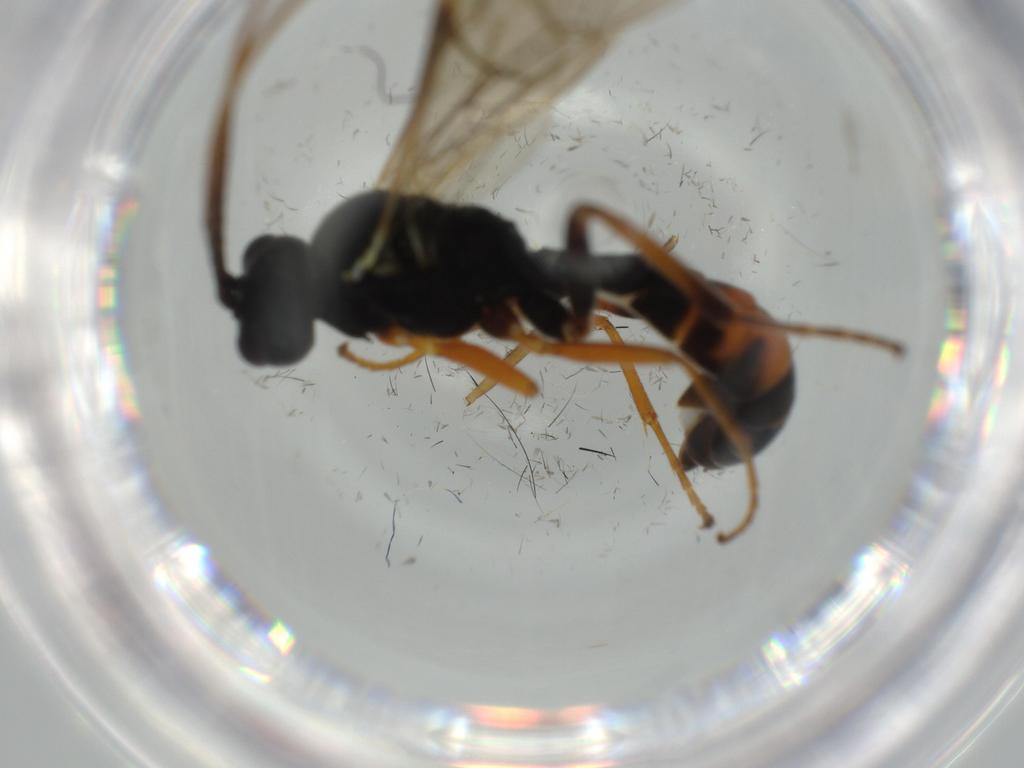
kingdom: Animalia
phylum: Arthropoda
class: Insecta
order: Hymenoptera
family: Ichneumonidae
